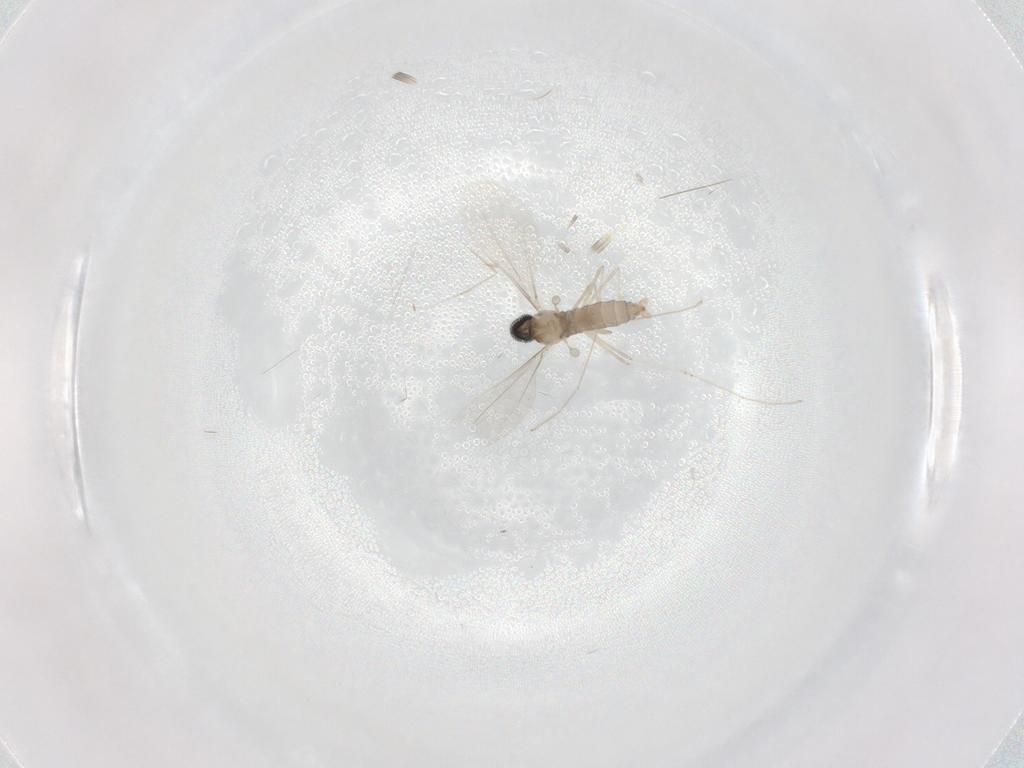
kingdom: Animalia
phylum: Arthropoda
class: Insecta
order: Diptera
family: Cecidomyiidae
